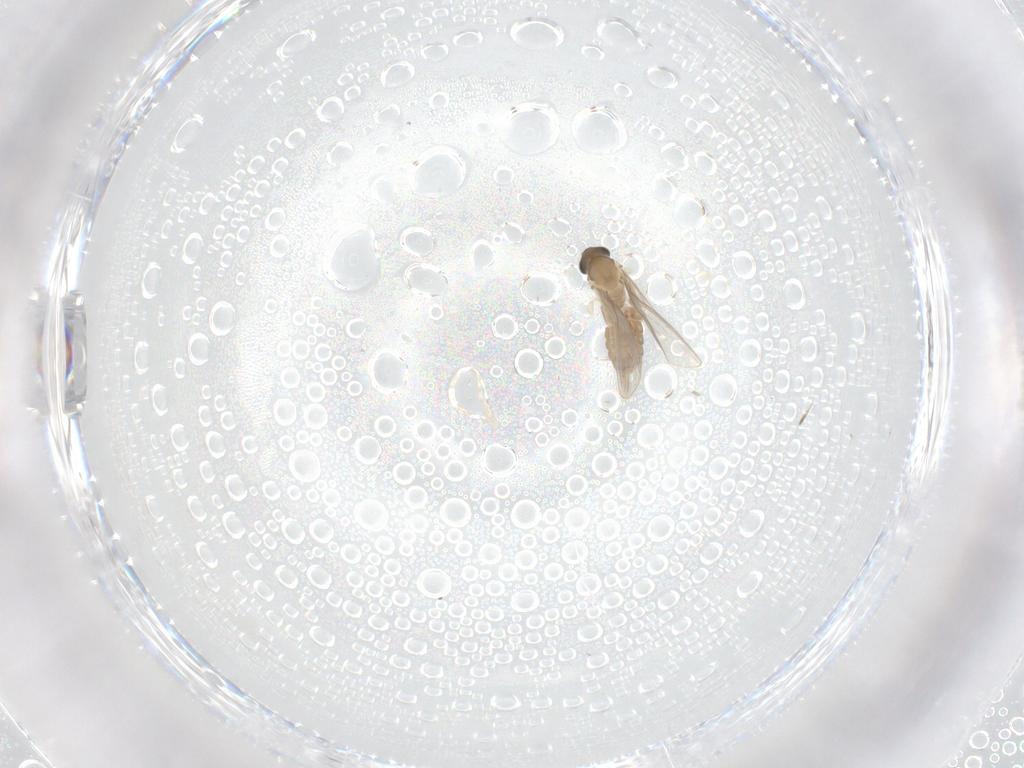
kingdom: Animalia
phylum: Arthropoda
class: Insecta
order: Diptera
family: Psychodidae
